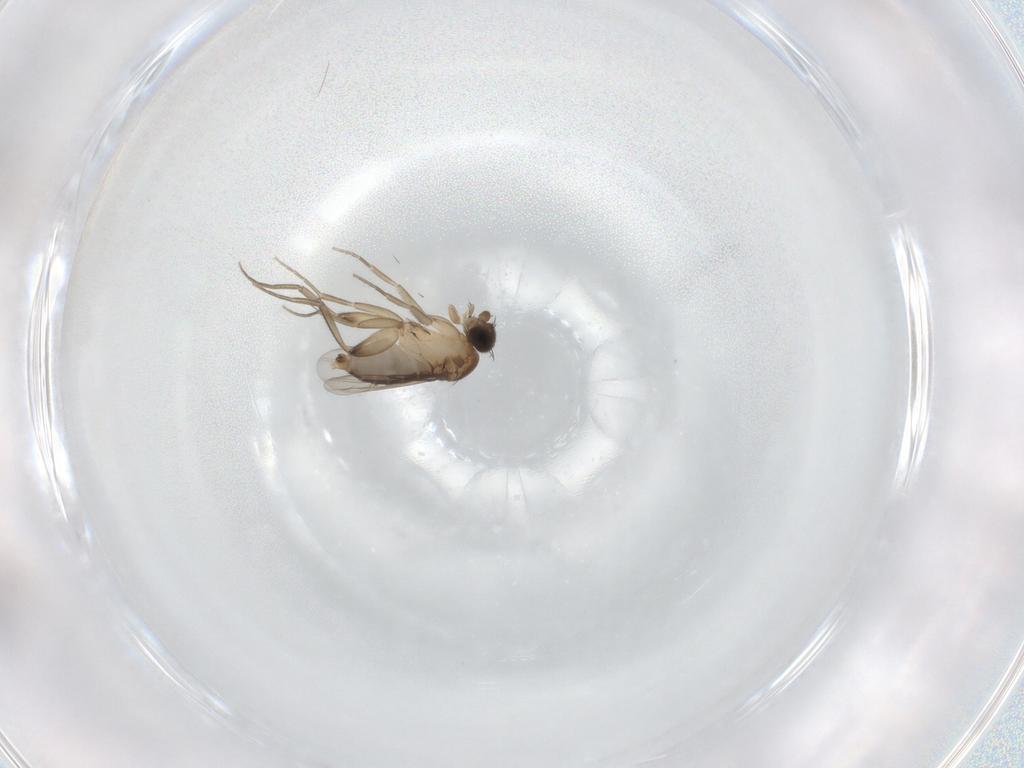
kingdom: Animalia
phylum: Arthropoda
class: Insecta
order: Diptera
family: Phoridae
